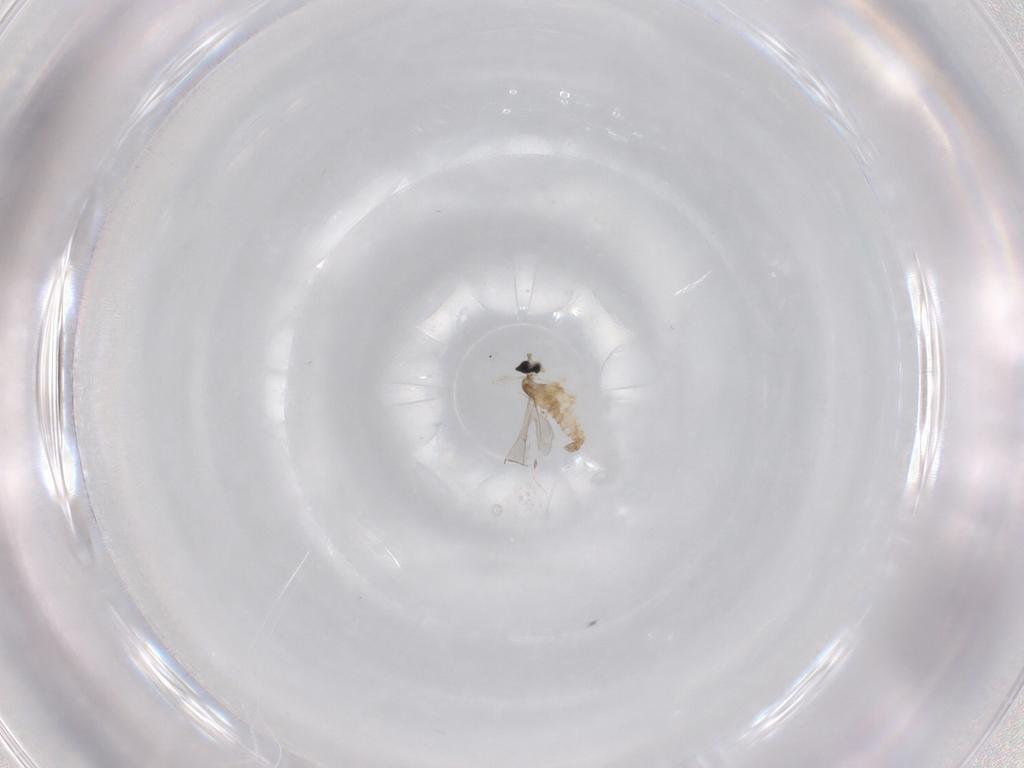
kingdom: Animalia
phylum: Arthropoda
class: Insecta
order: Diptera
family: Cecidomyiidae
